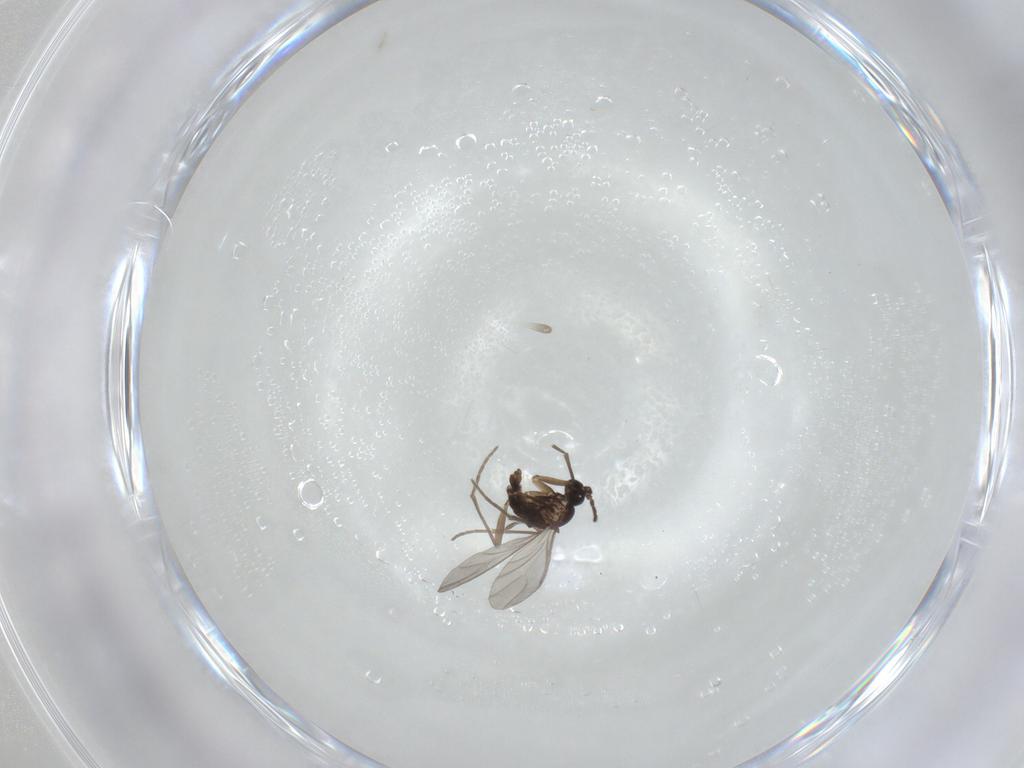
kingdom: Animalia
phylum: Arthropoda
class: Insecta
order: Diptera
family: Sciaridae
